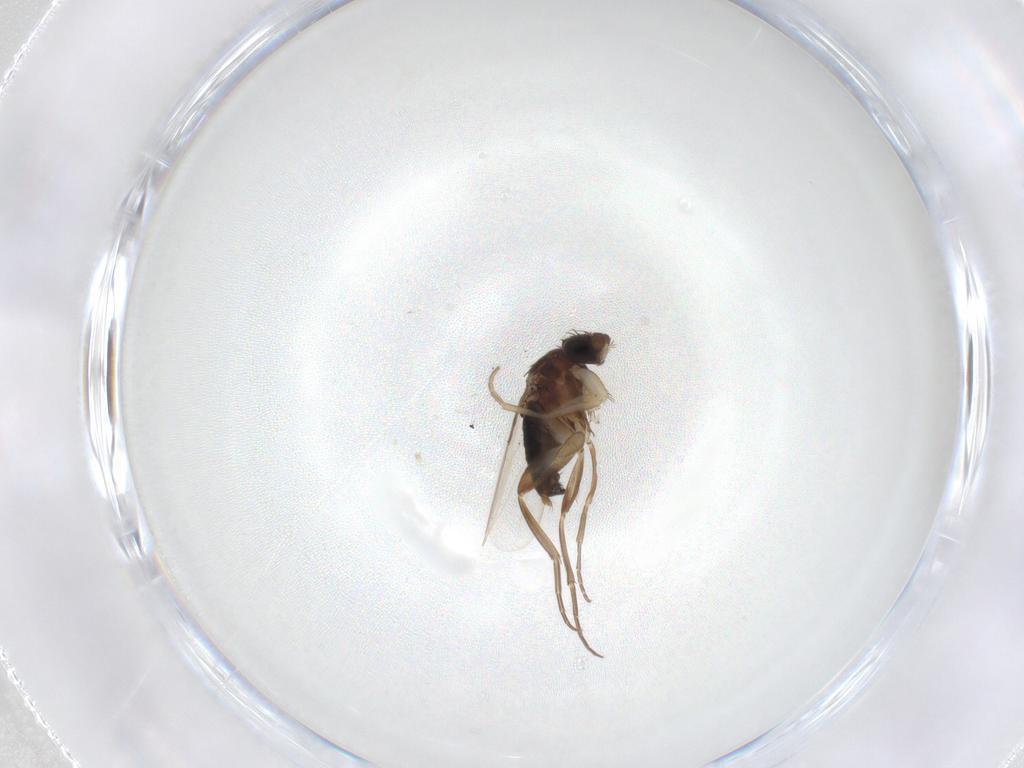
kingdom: Animalia
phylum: Arthropoda
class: Insecta
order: Diptera
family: Phoridae
